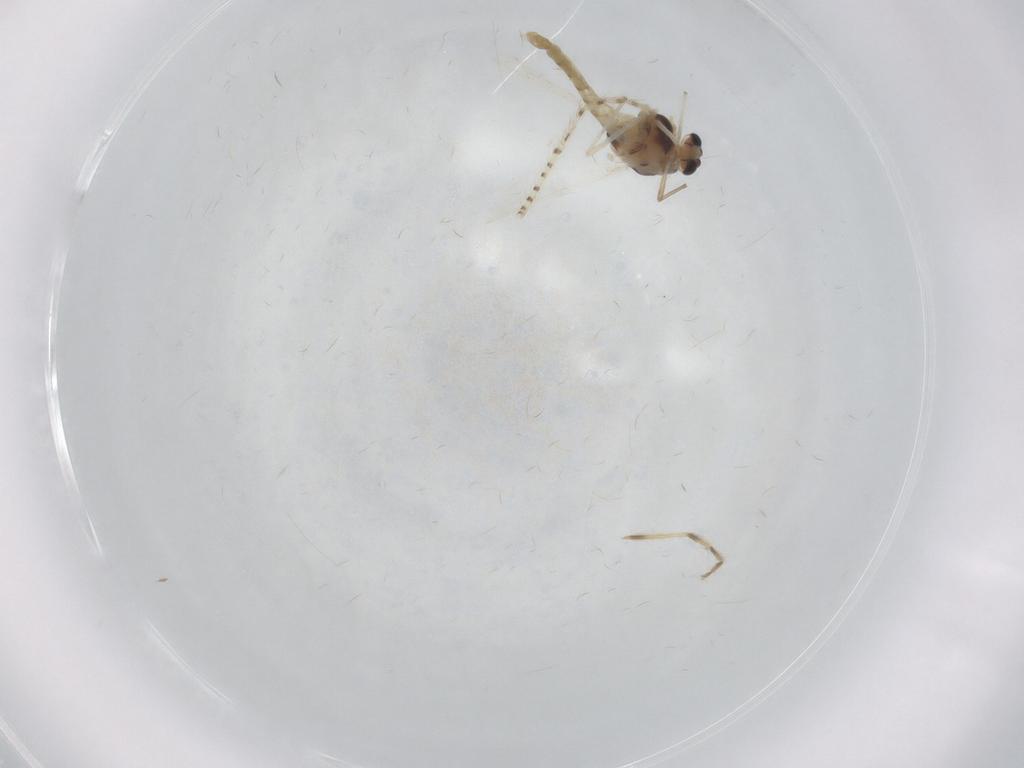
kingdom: Animalia
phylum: Arthropoda
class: Insecta
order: Diptera
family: Chironomidae
